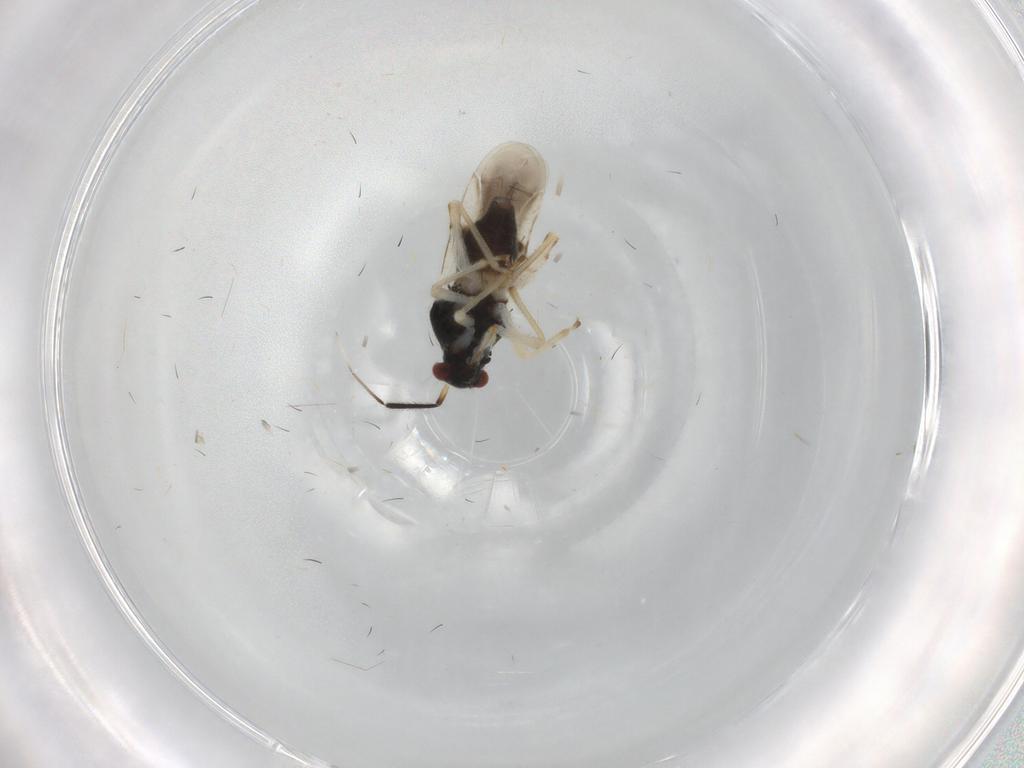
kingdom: Animalia
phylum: Arthropoda
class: Insecta
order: Hemiptera
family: Miridae
